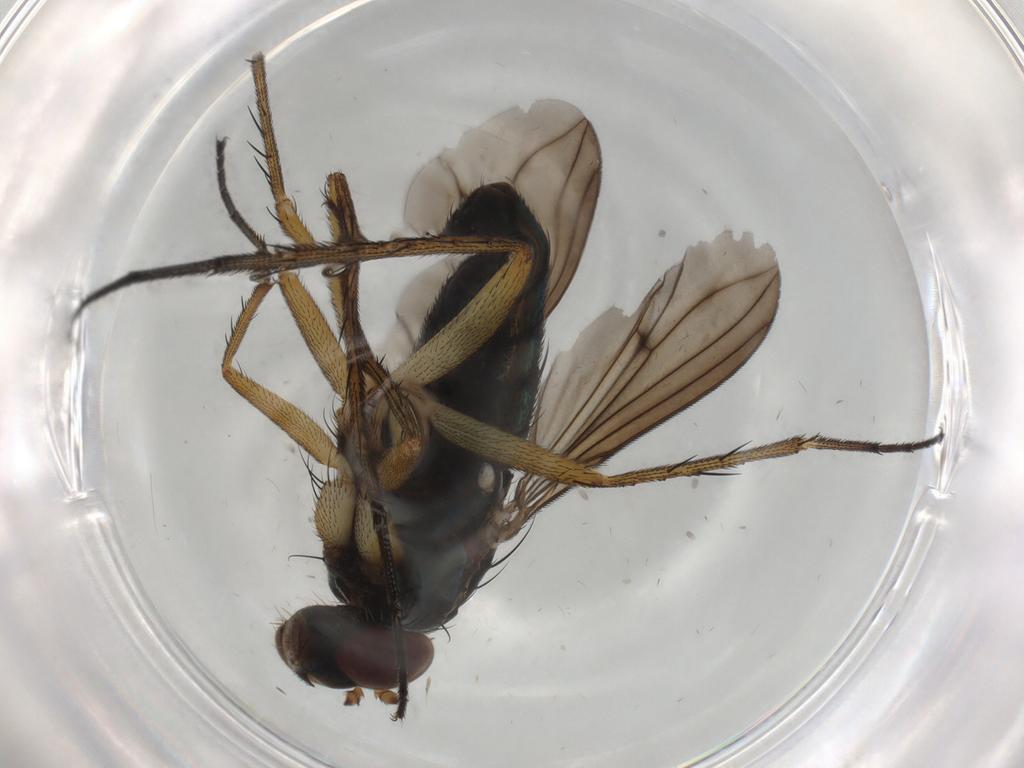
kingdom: Animalia
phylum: Arthropoda
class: Insecta
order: Diptera
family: Dolichopodidae
